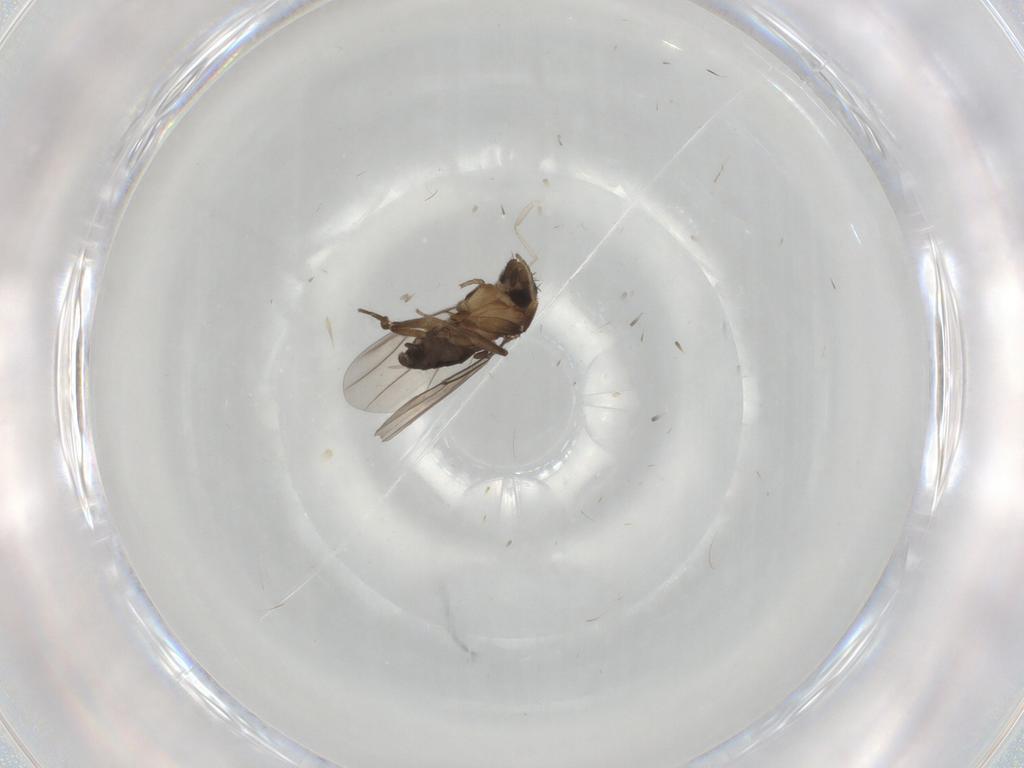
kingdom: Animalia
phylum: Arthropoda
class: Insecta
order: Diptera
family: Phoridae
